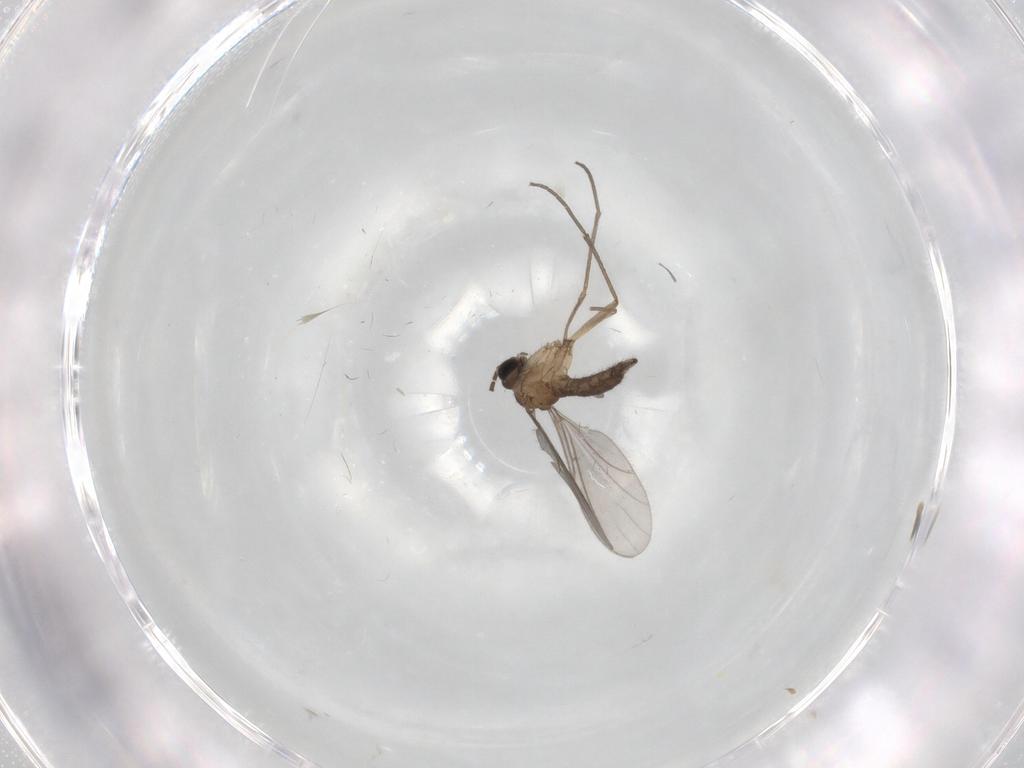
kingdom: Animalia
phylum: Arthropoda
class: Insecta
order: Diptera
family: Sciaridae
